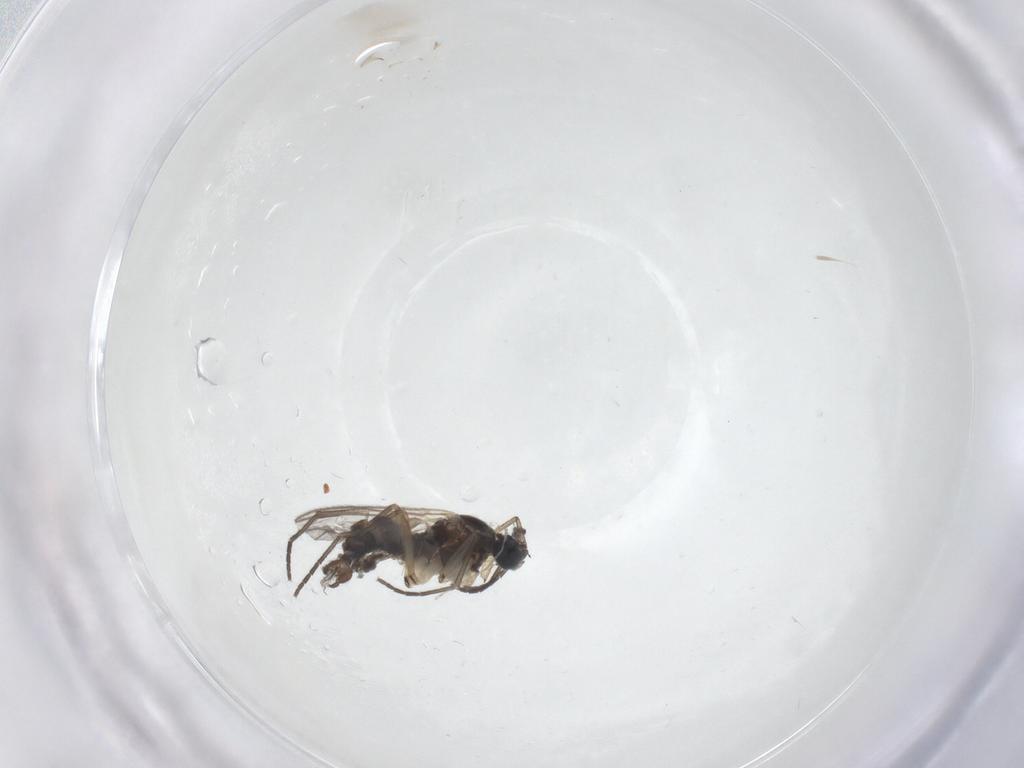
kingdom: Animalia
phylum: Arthropoda
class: Insecta
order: Diptera
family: Sciaridae
